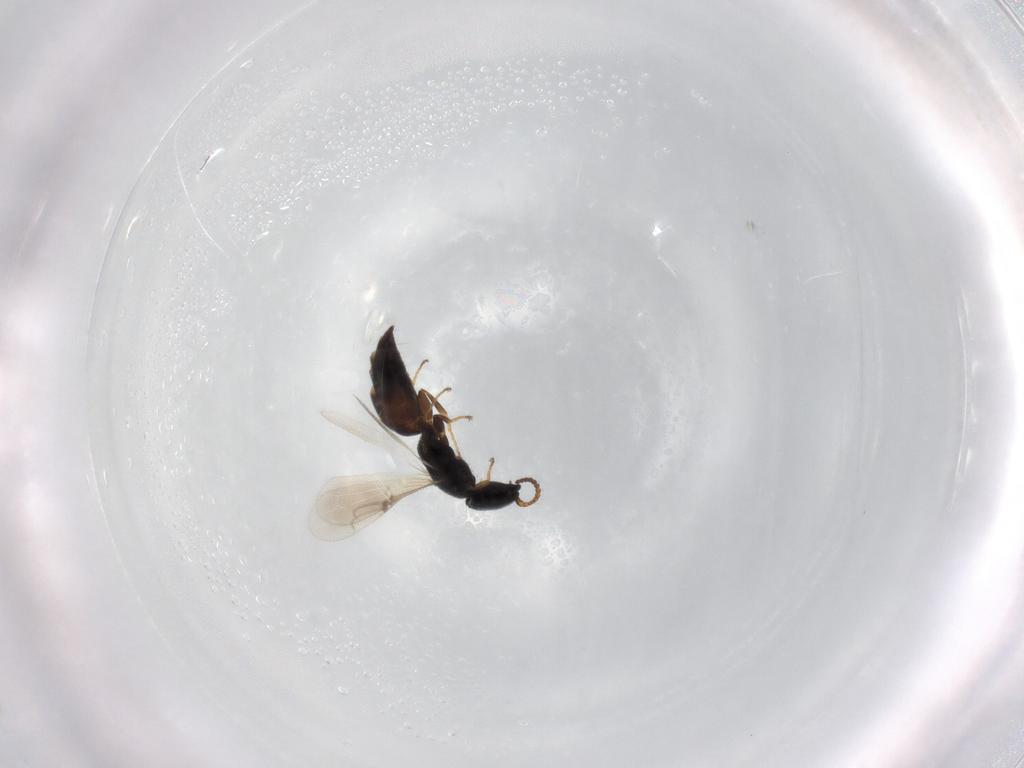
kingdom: Animalia
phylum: Arthropoda
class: Insecta
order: Hymenoptera
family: Bethylidae
